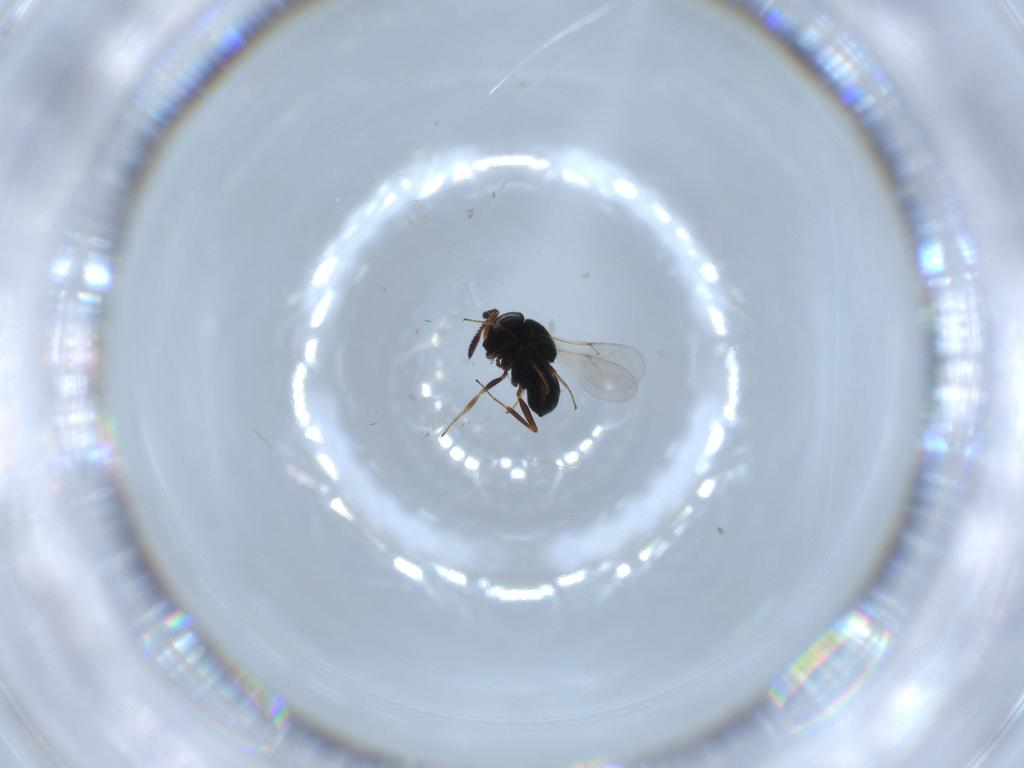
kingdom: Animalia
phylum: Arthropoda
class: Insecta
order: Hymenoptera
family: Scelionidae
